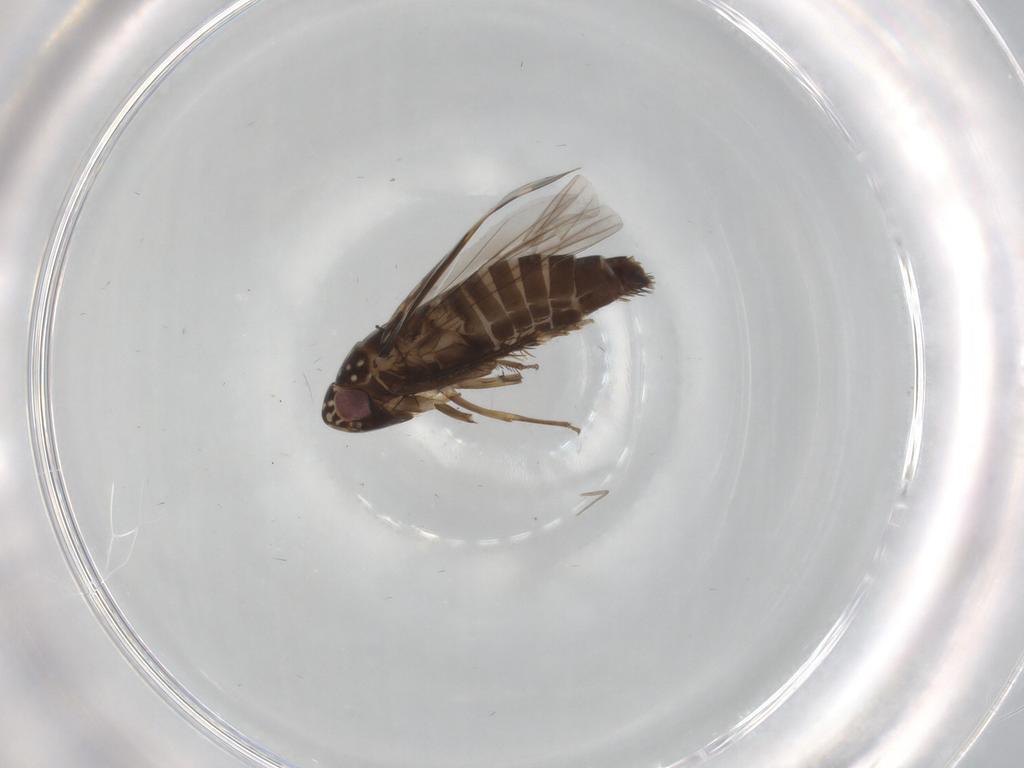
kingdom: Animalia
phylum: Arthropoda
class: Insecta
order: Hemiptera
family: Cicadellidae
